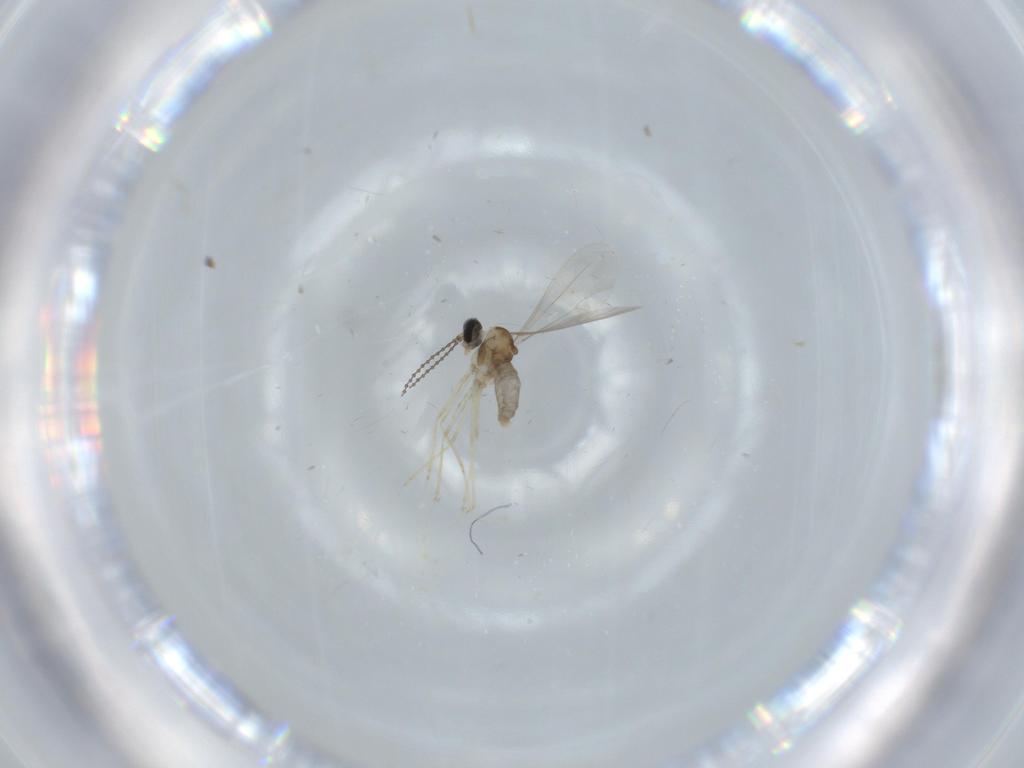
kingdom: Animalia
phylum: Arthropoda
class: Insecta
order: Diptera
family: Cecidomyiidae
